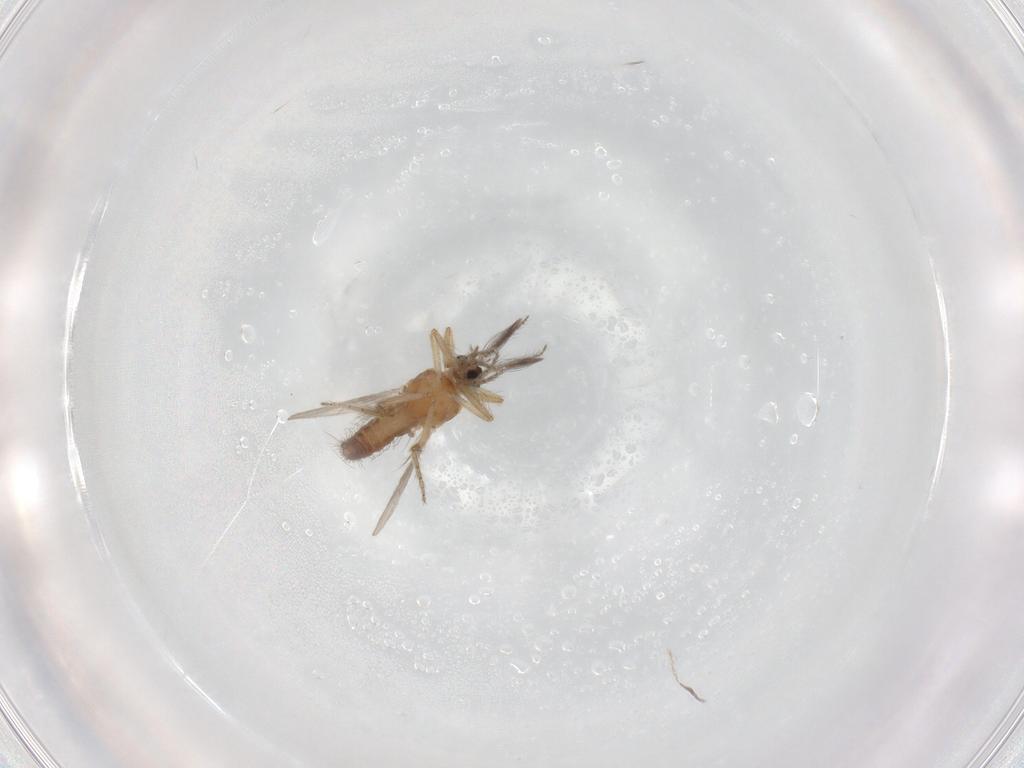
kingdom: Animalia
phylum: Arthropoda
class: Insecta
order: Diptera
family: Ceratopogonidae
